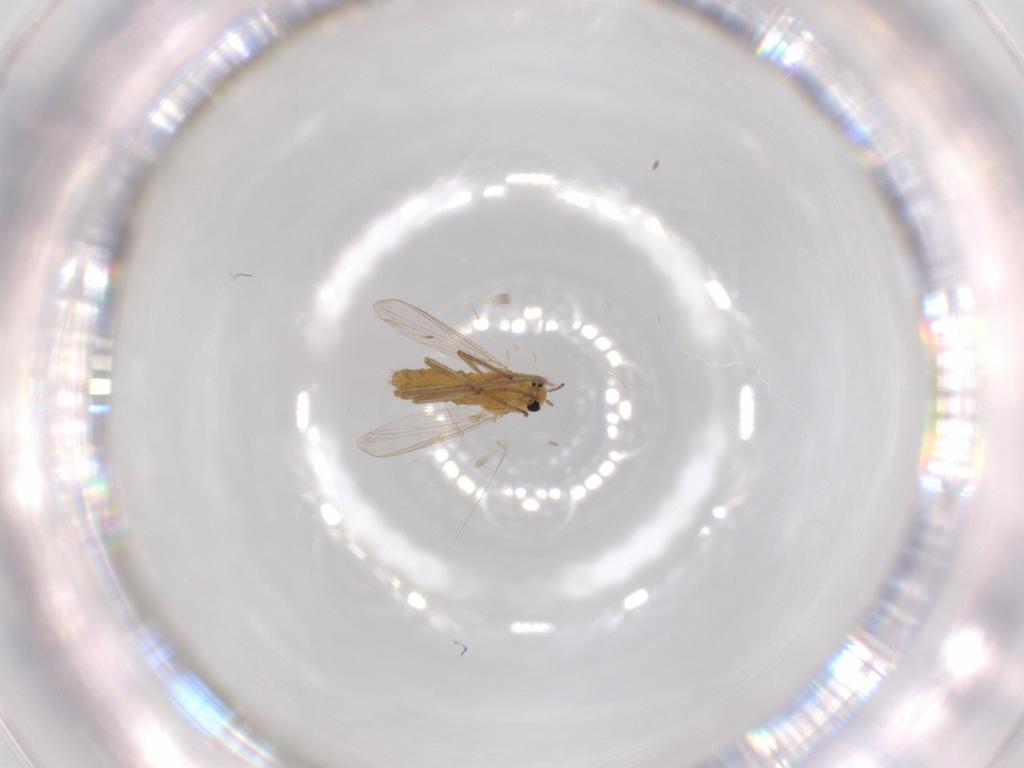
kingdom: Animalia
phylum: Arthropoda
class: Insecta
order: Diptera
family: Chironomidae
